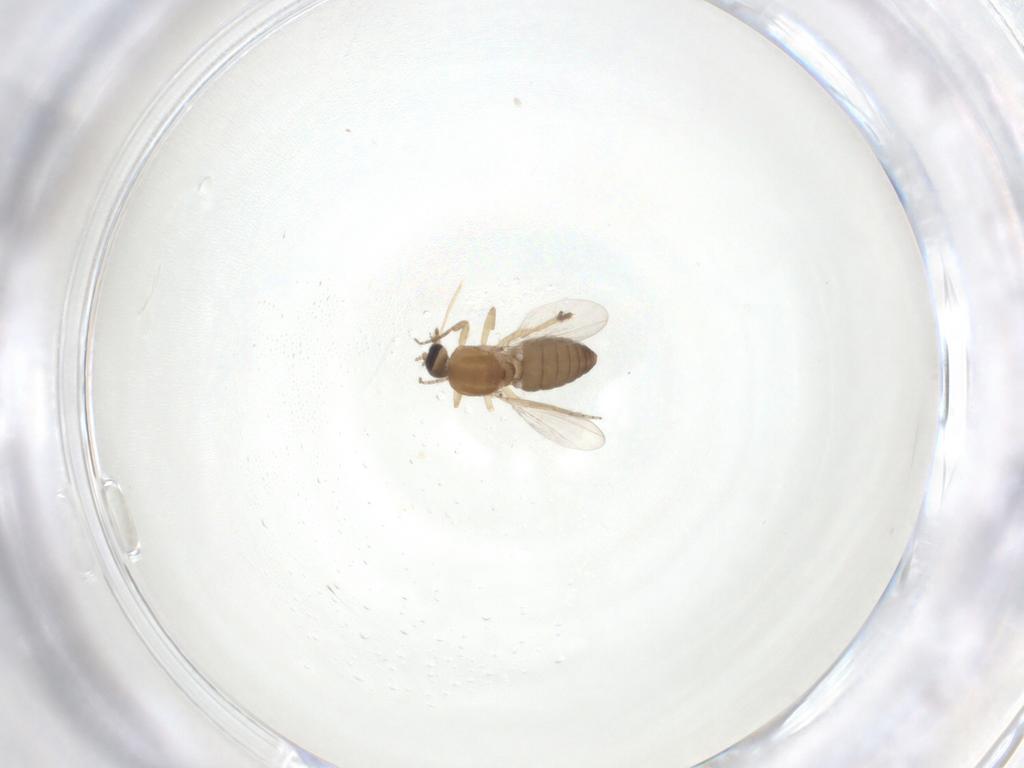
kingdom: Animalia
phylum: Arthropoda
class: Insecta
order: Diptera
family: Ceratopogonidae
